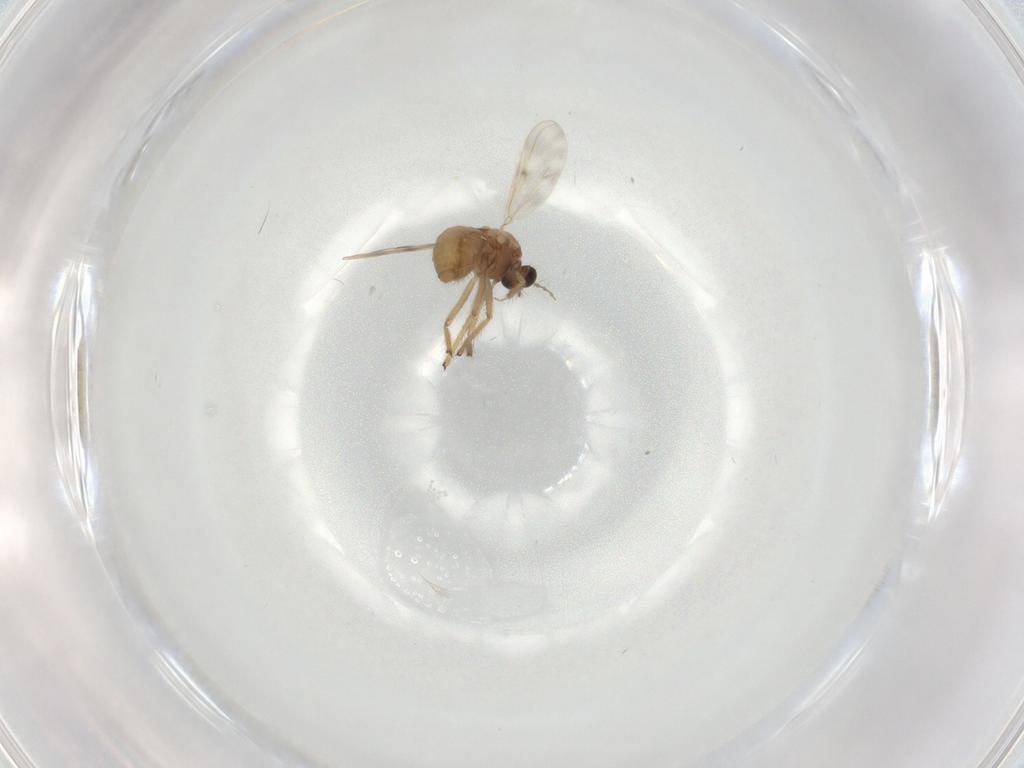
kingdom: Animalia
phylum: Arthropoda
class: Insecta
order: Diptera
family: Chironomidae
